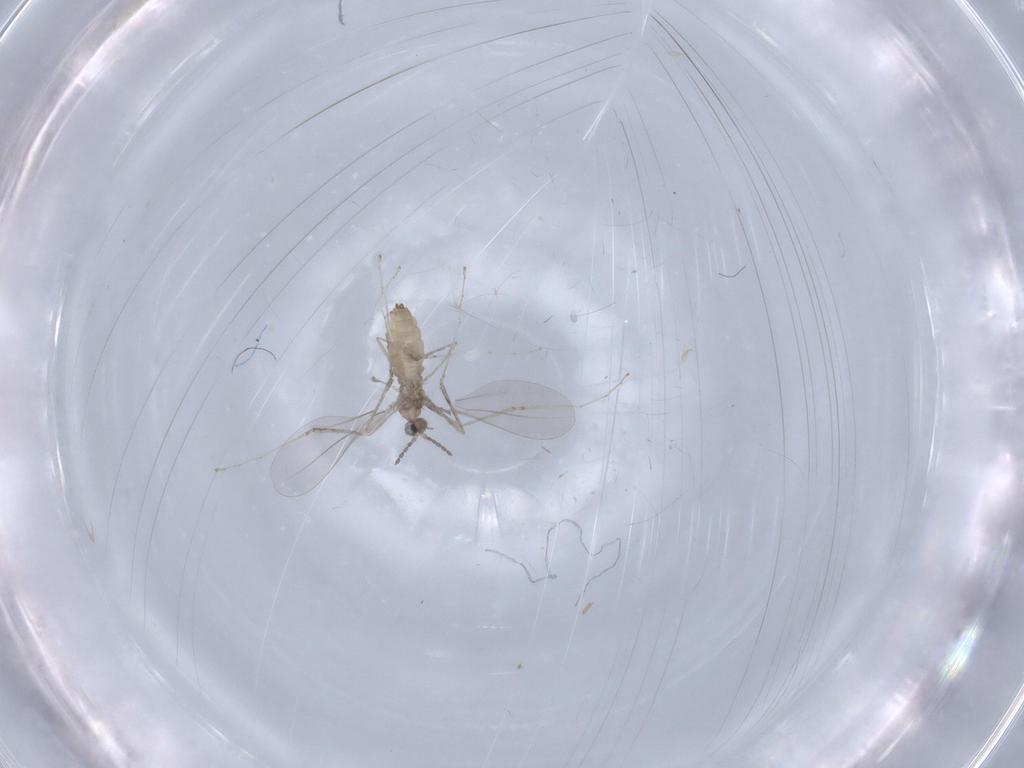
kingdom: Animalia
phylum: Arthropoda
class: Insecta
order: Diptera
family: Cecidomyiidae
